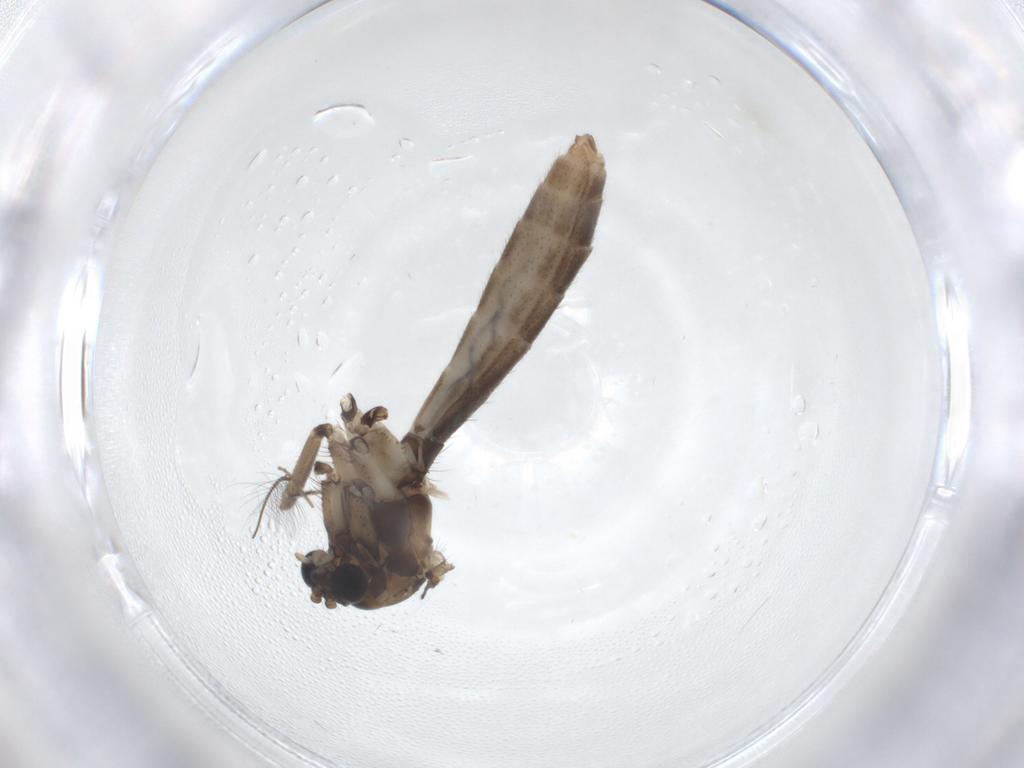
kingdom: Animalia
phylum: Arthropoda
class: Insecta
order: Diptera
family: Mycetophilidae
